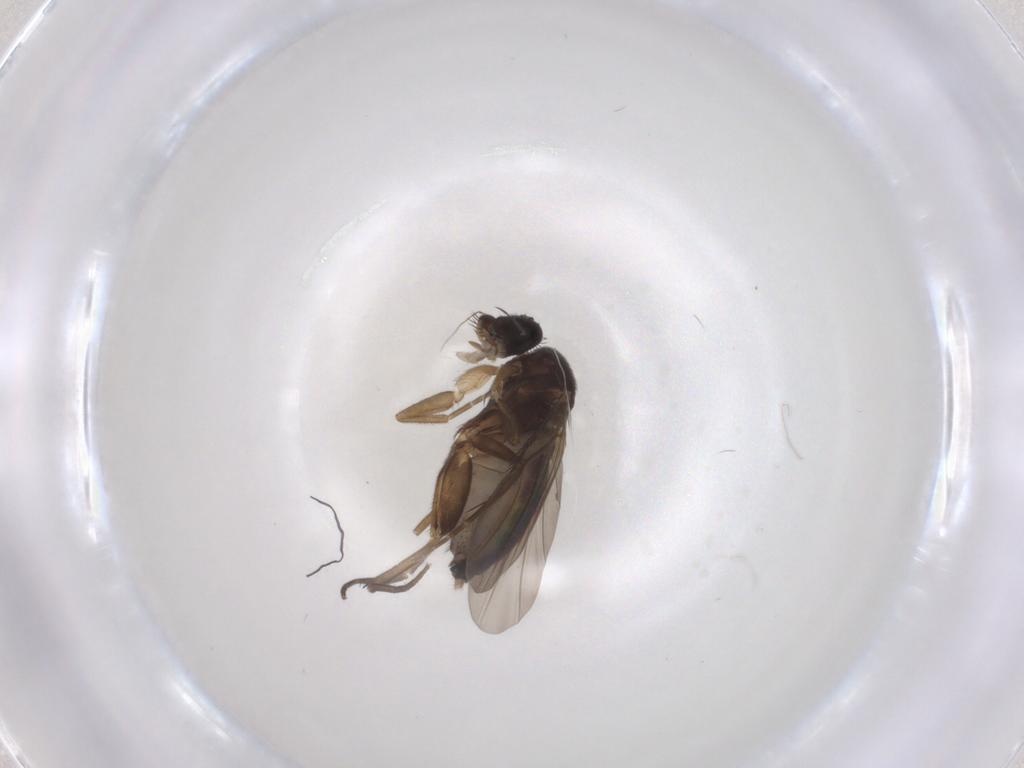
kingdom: Animalia
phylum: Arthropoda
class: Insecta
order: Diptera
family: Phoridae
